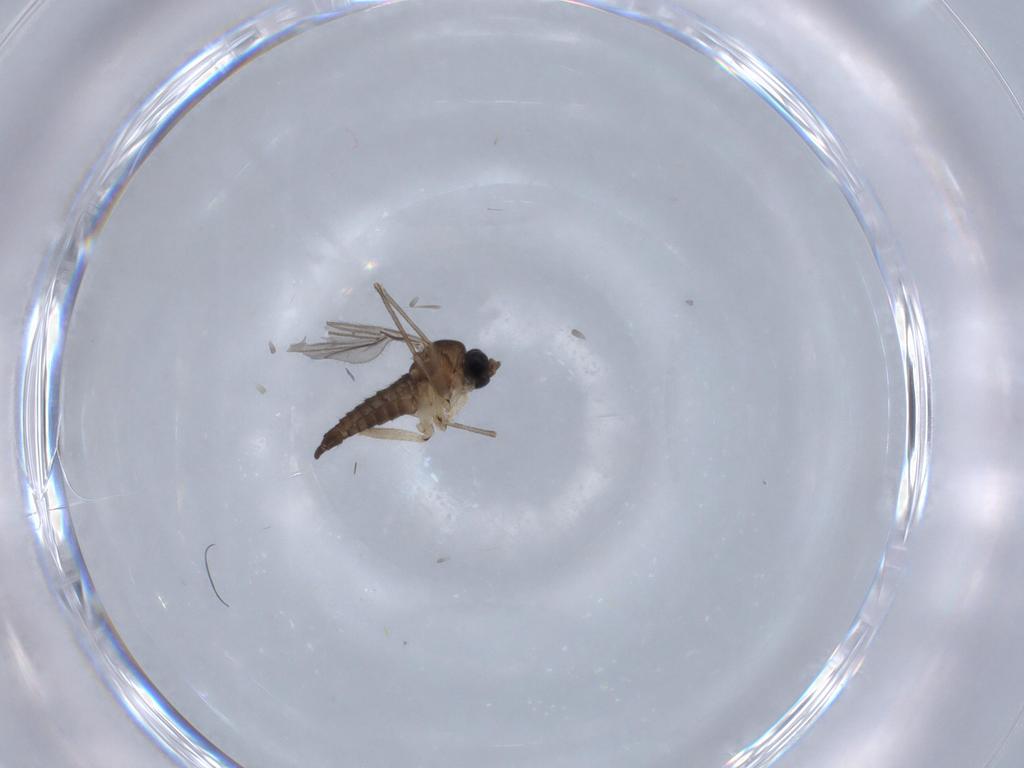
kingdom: Animalia
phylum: Arthropoda
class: Insecta
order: Diptera
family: Sciaridae
